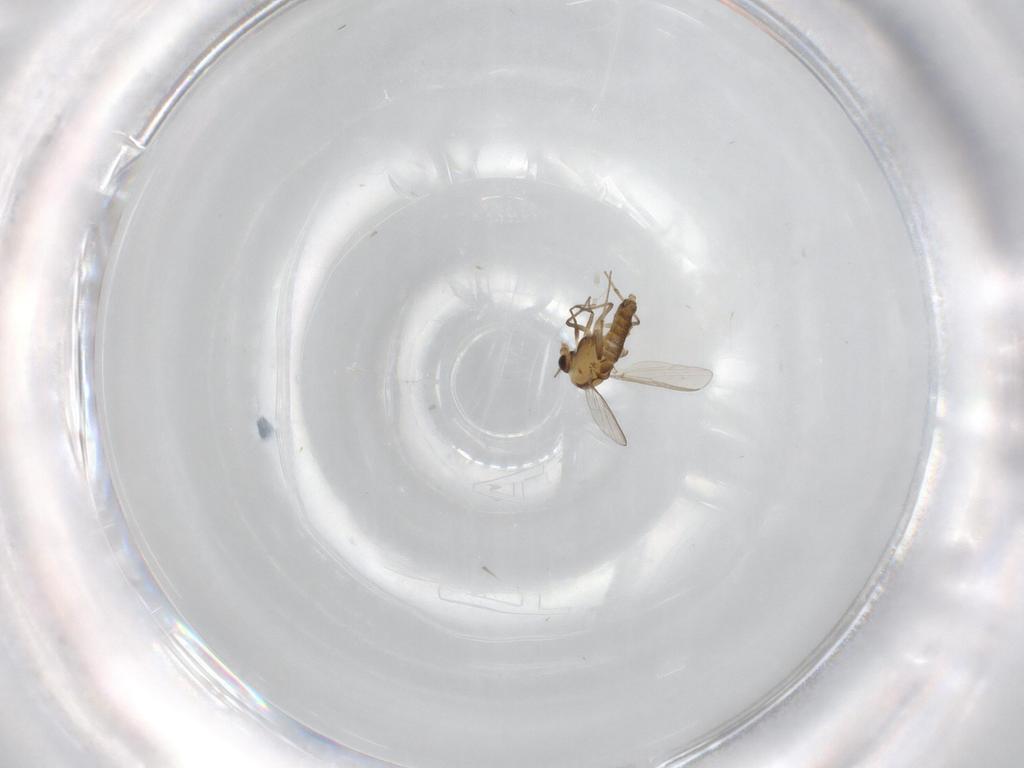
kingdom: Animalia
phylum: Arthropoda
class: Insecta
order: Diptera
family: Chironomidae
